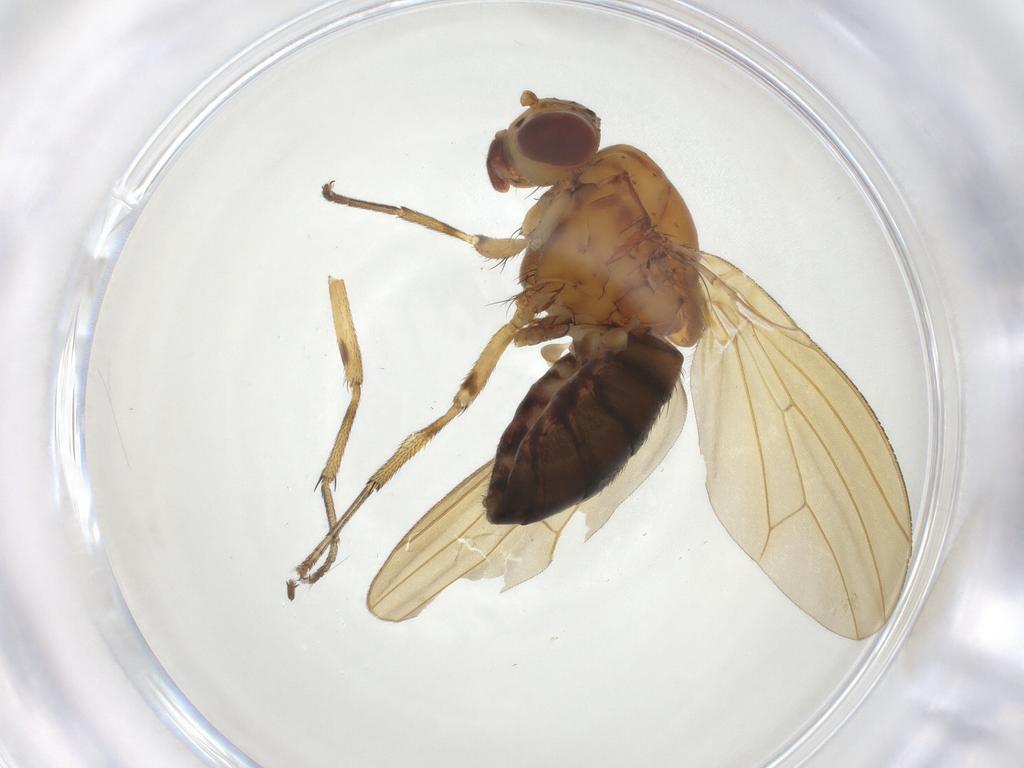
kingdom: Animalia
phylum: Arthropoda
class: Insecta
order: Diptera
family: Lauxaniidae
